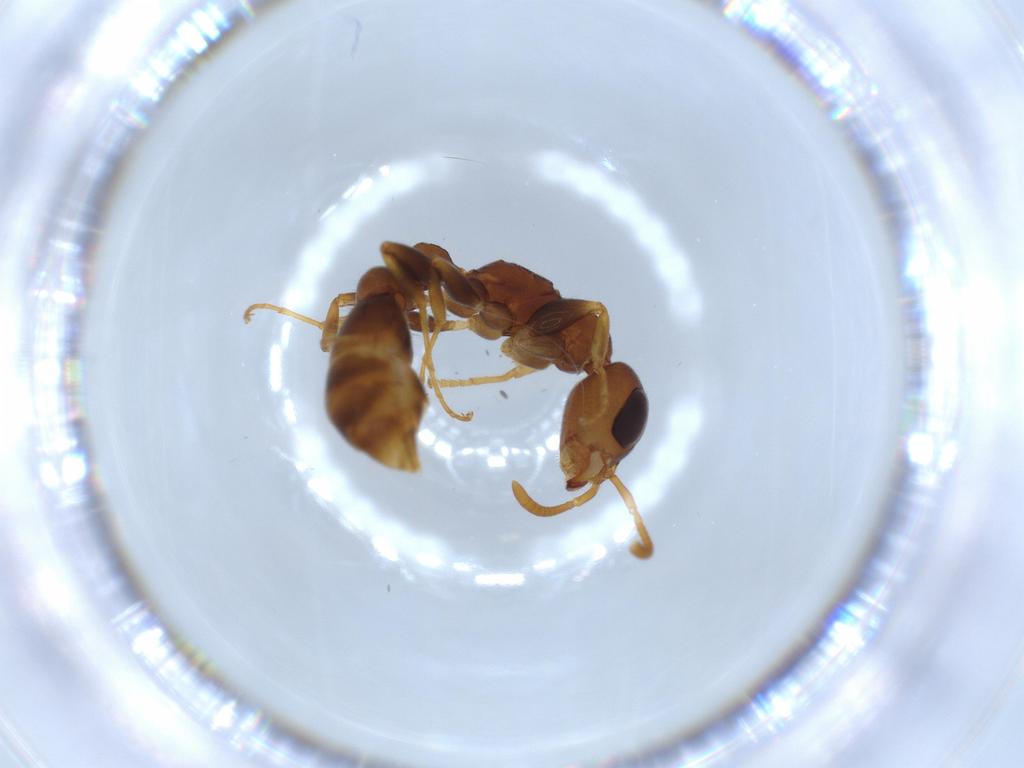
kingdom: Animalia
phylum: Arthropoda
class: Insecta
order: Hymenoptera
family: Formicidae
